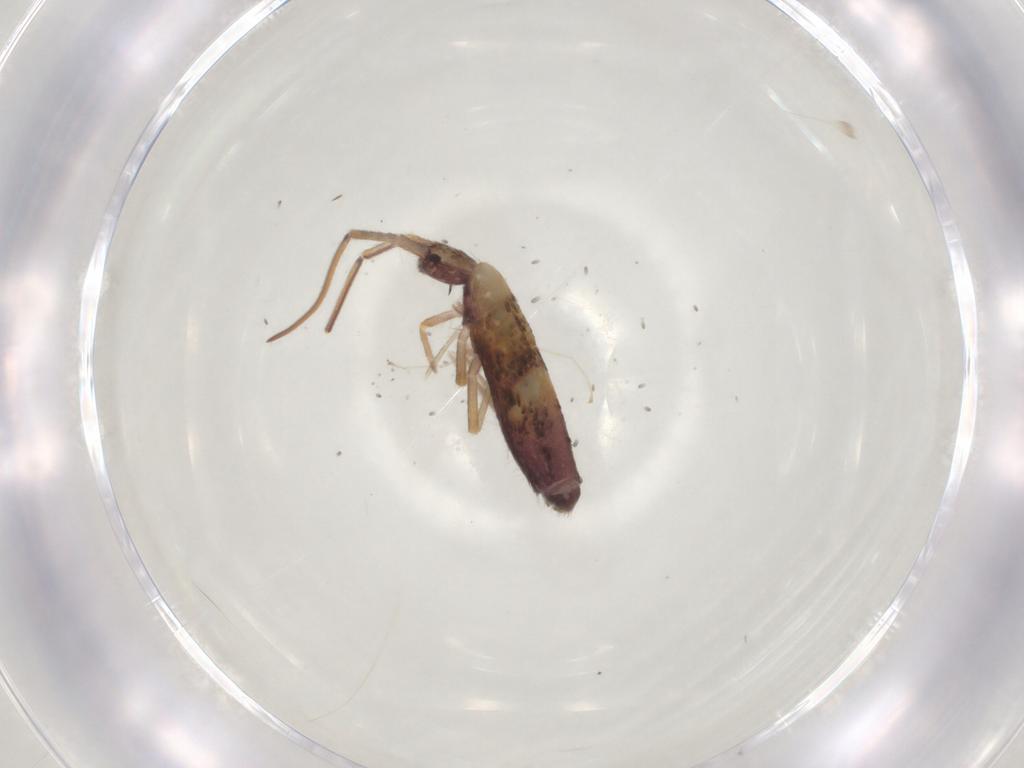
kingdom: Animalia
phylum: Arthropoda
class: Collembola
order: Entomobryomorpha
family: Entomobryidae
